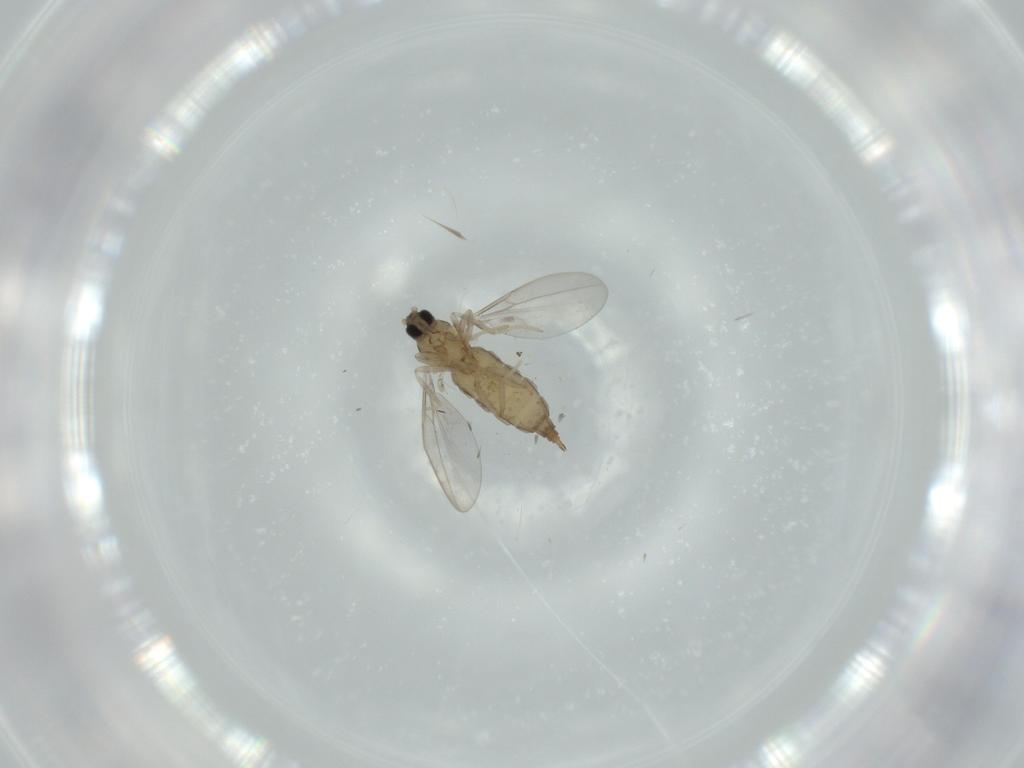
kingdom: Animalia
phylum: Arthropoda
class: Insecta
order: Diptera
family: Cecidomyiidae
